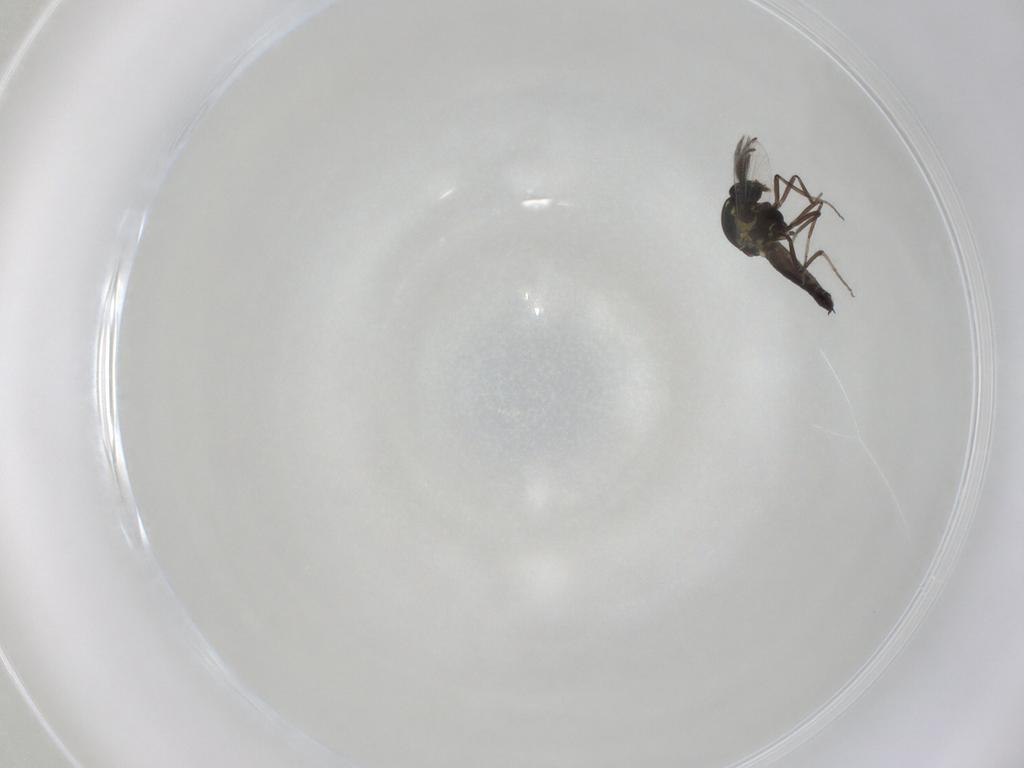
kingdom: Animalia
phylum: Arthropoda
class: Insecta
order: Diptera
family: Ceratopogonidae
